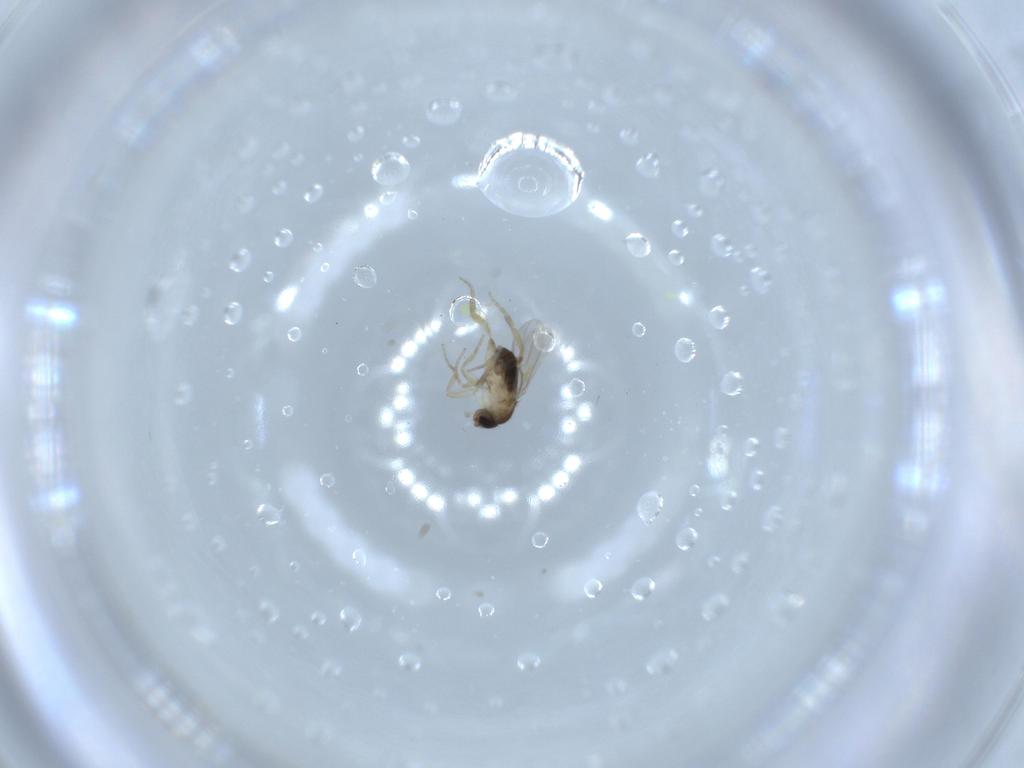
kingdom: Animalia
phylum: Arthropoda
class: Insecta
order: Diptera
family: Phoridae
